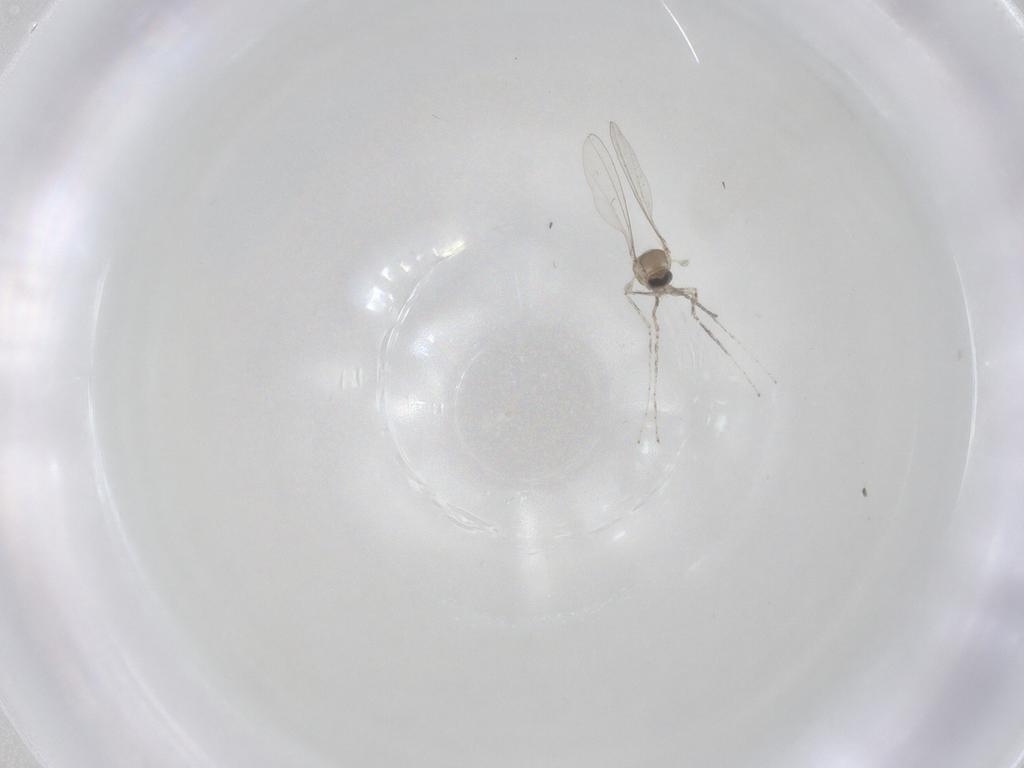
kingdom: Animalia
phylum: Arthropoda
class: Insecta
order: Diptera
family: Cecidomyiidae
